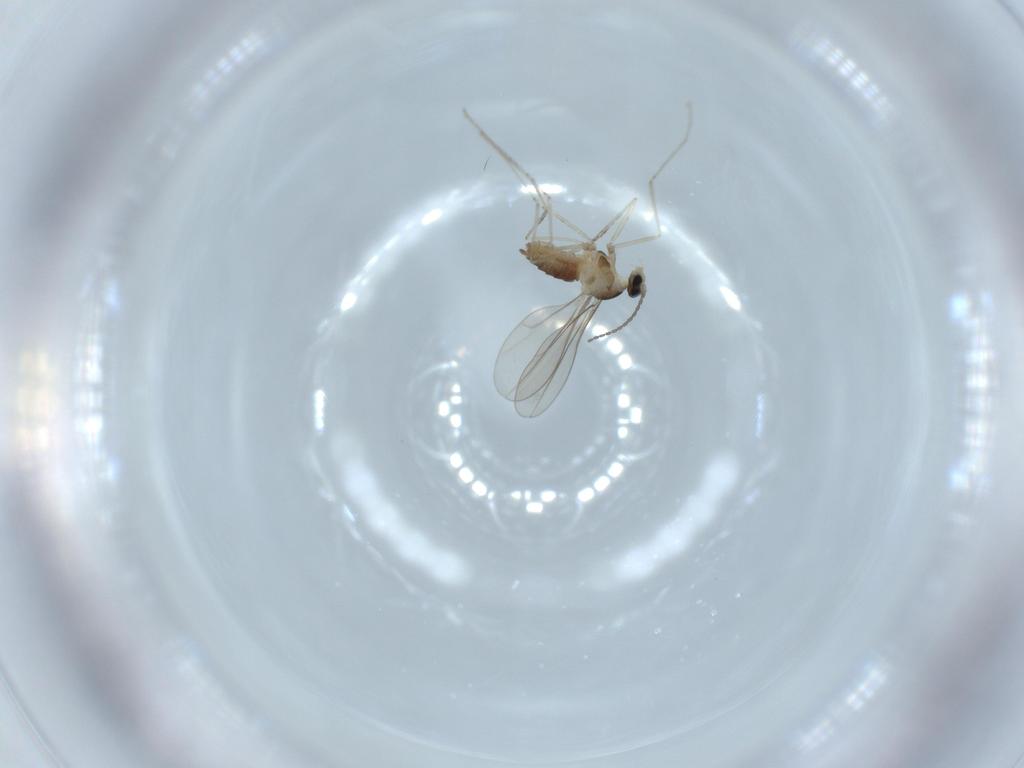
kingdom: Animalia
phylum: Arthropoda
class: Insecta
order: Diptera
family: Cecidomyiidae
